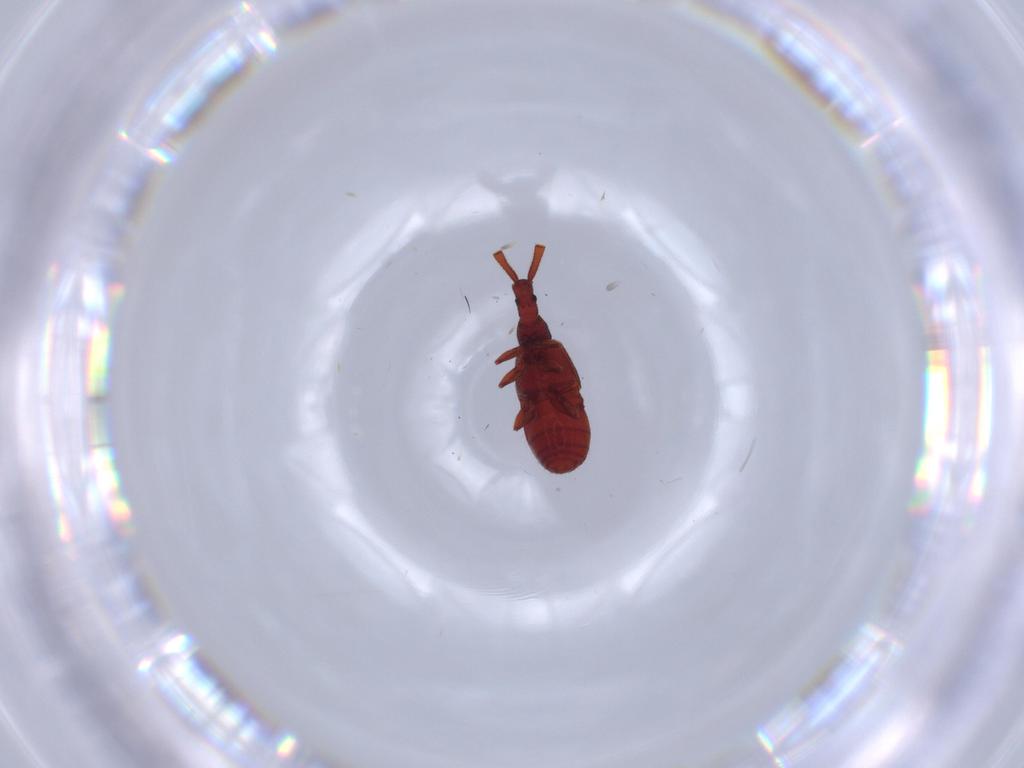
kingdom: Animalia
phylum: Arthropoda
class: Insecta
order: Coleoptera
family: Staphylinidae
